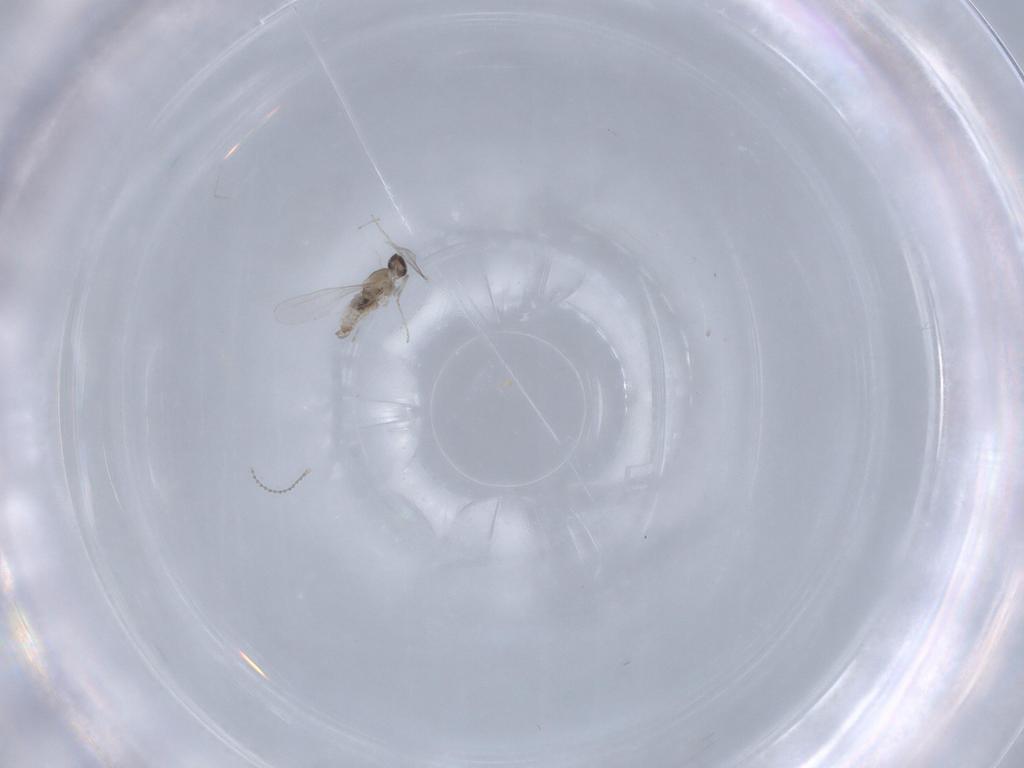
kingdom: Animalia
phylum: Arthropoda
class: Insecta
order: Diptera
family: Cecidomyiidae
